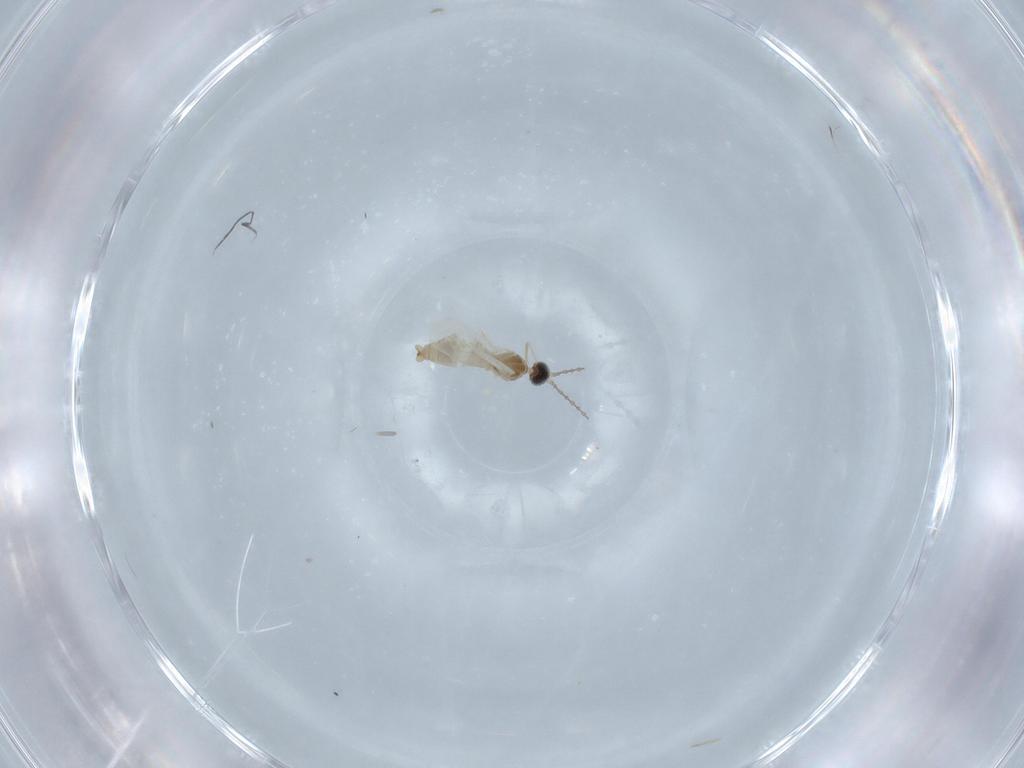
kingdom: Animalia
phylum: Arthropoda
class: Insecta
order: Diptera
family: Cecidomyiidae
